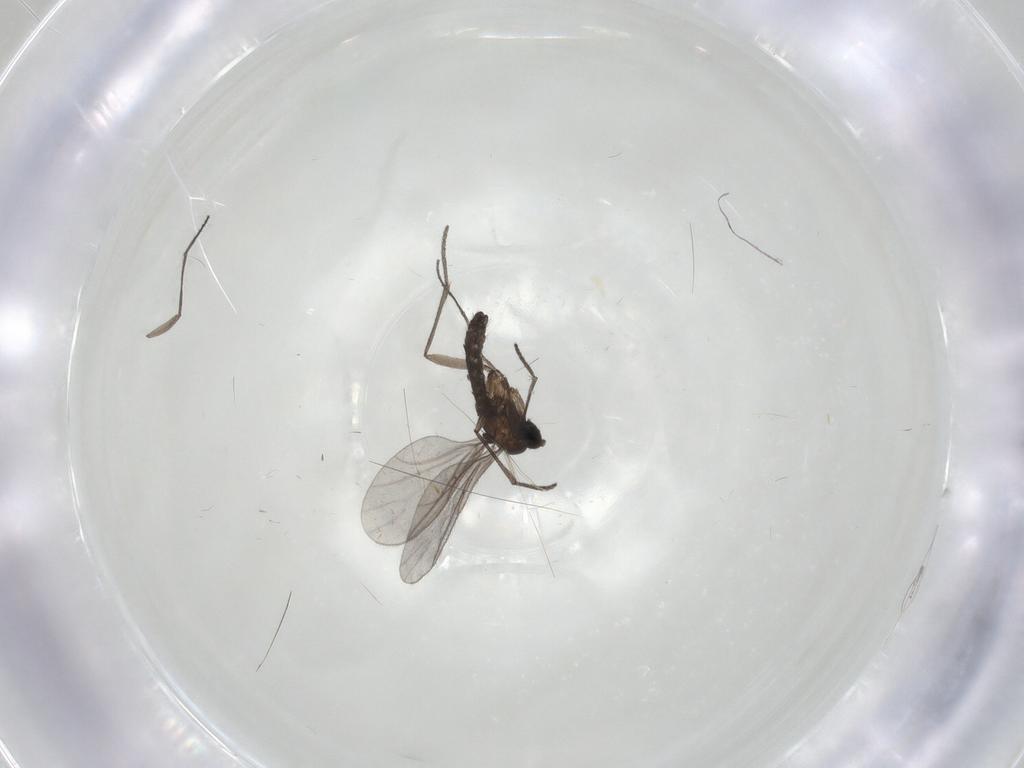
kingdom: Animalia
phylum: Arthropoda
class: Insecta
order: Diptera
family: Sciaridae
